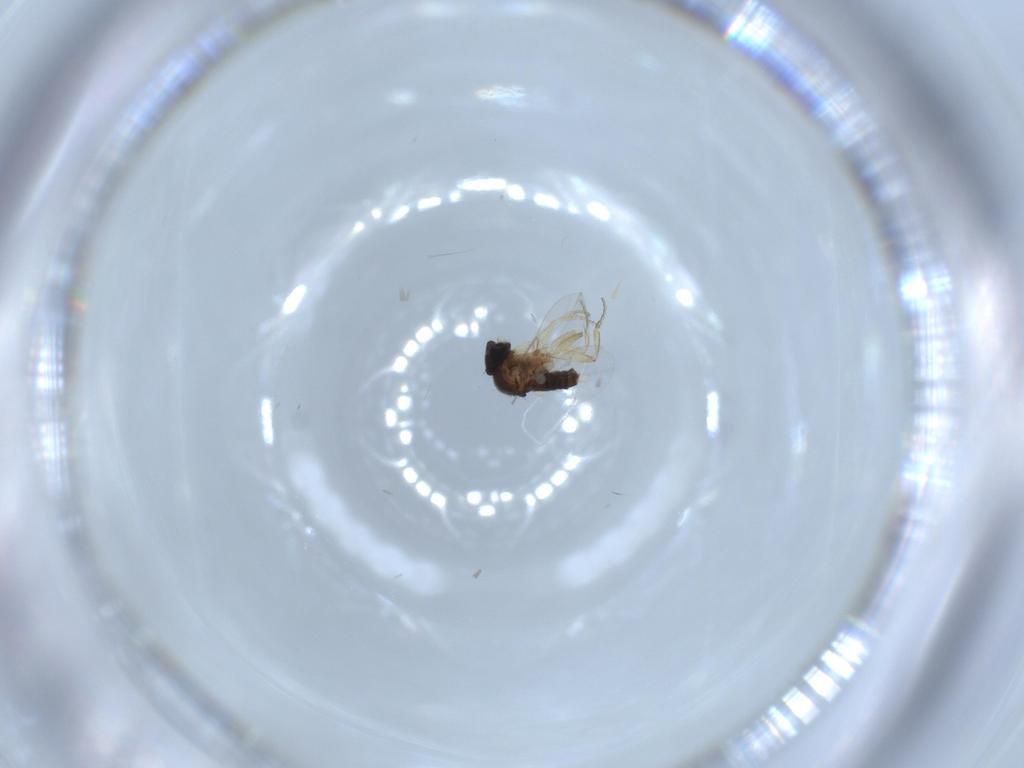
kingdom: Animalia
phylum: Arthropoda
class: Insecta
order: Diptera
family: Phoridae
